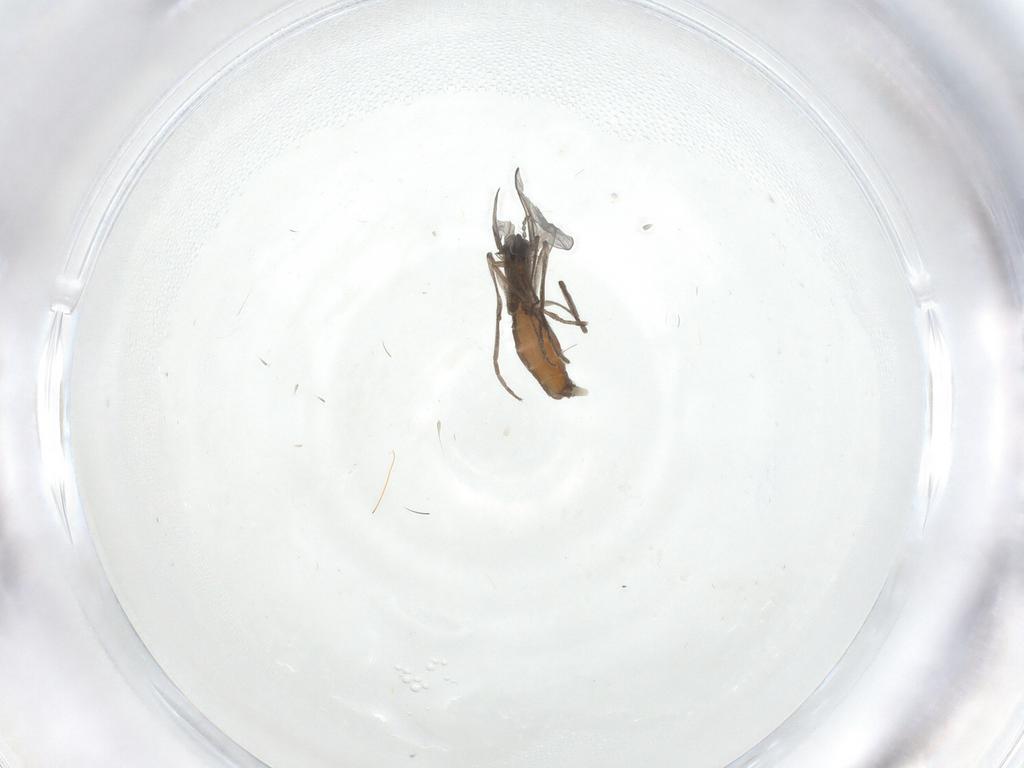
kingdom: Animalia
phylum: Arthropoda
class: Insecta
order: Diptera
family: Cecidomyiidae
